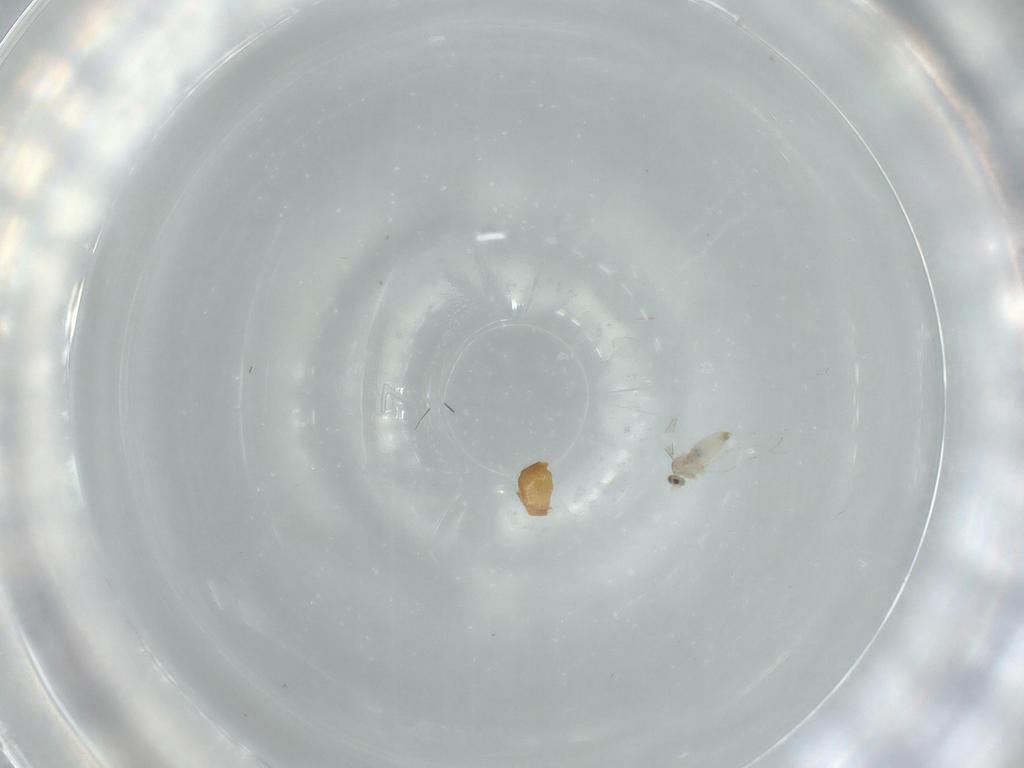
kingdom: Animalia
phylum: Arthropoda
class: Insecta
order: Diptera
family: Cecidomyiidae
